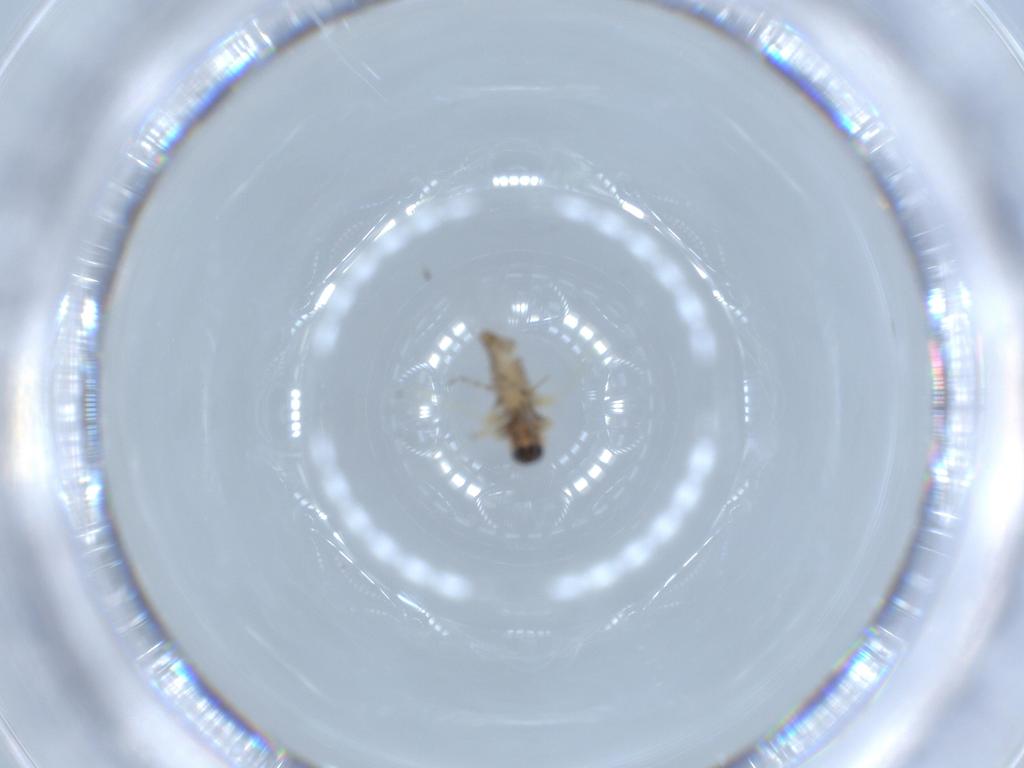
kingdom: Animalia
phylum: Arthropoda
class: Insecta
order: Diptera
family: Ceratopogonidae
